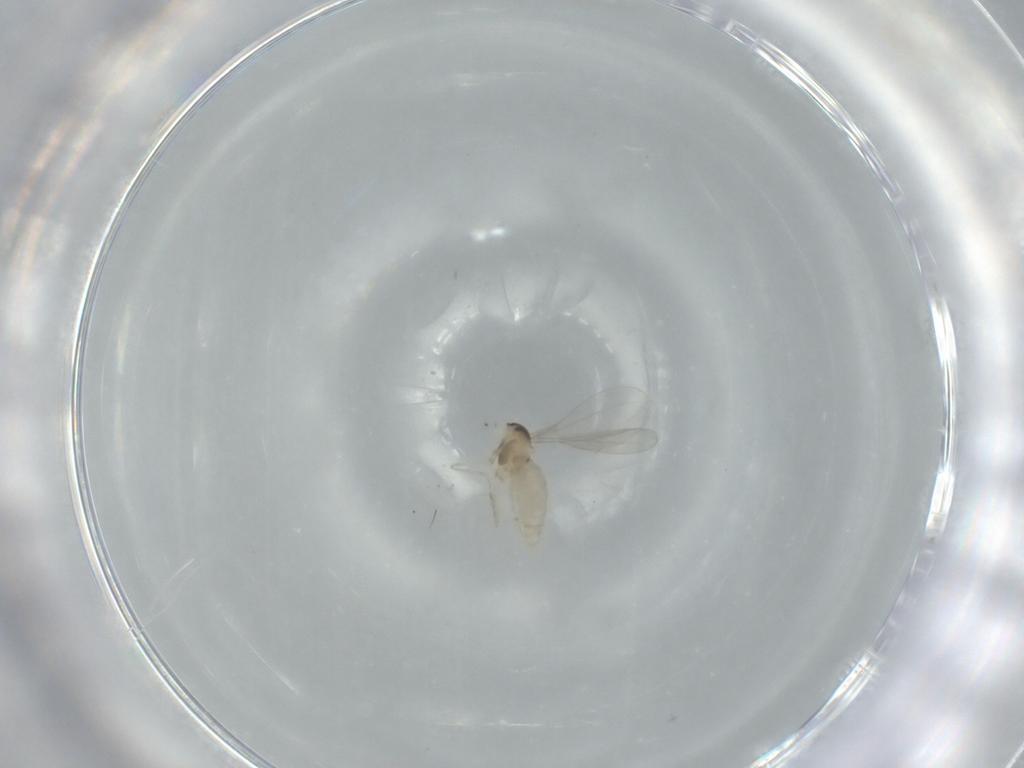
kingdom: Animalia
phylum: Arthropoda
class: Insecta
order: Diptera
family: Cecidomyiidae
